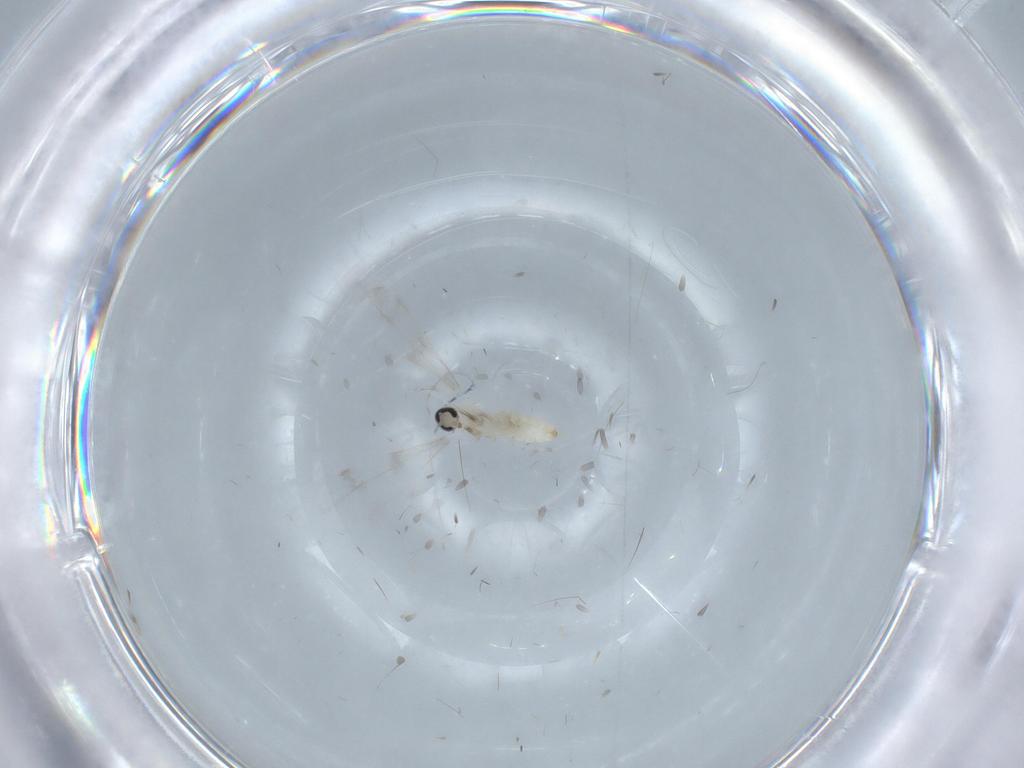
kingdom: Animalia
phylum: Arthropoda
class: Insecta
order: Diptera
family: Cecidomyiidae
